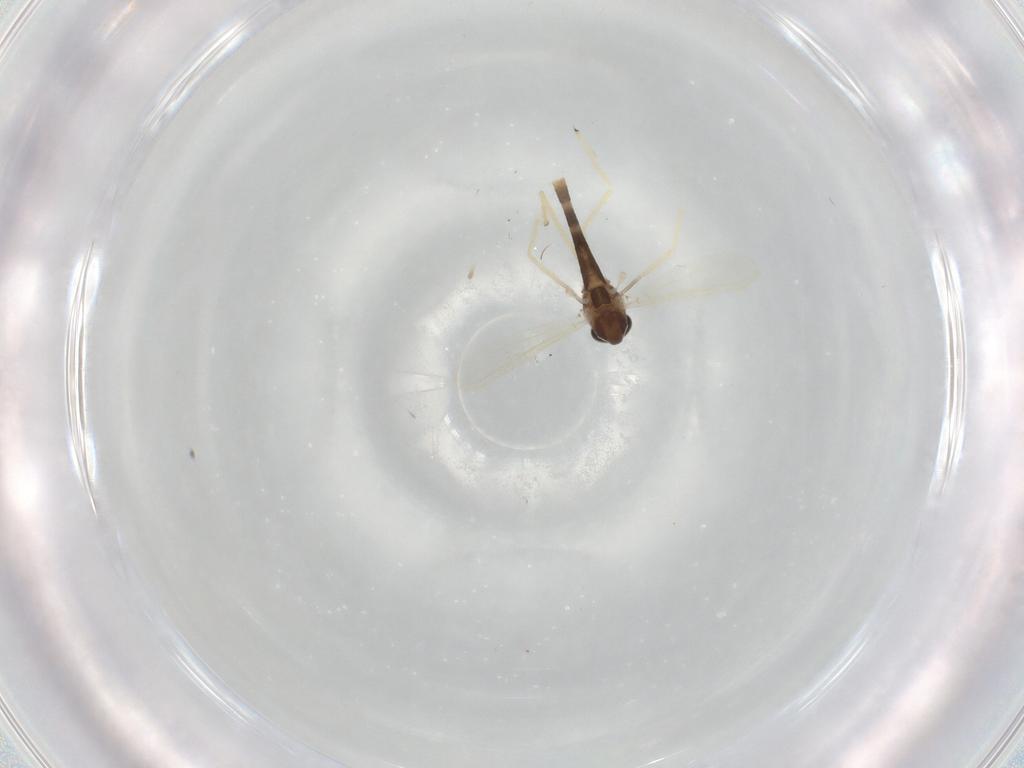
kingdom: Animalia
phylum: Arthropoda
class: Insecta
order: Diptera
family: Chironomidae
